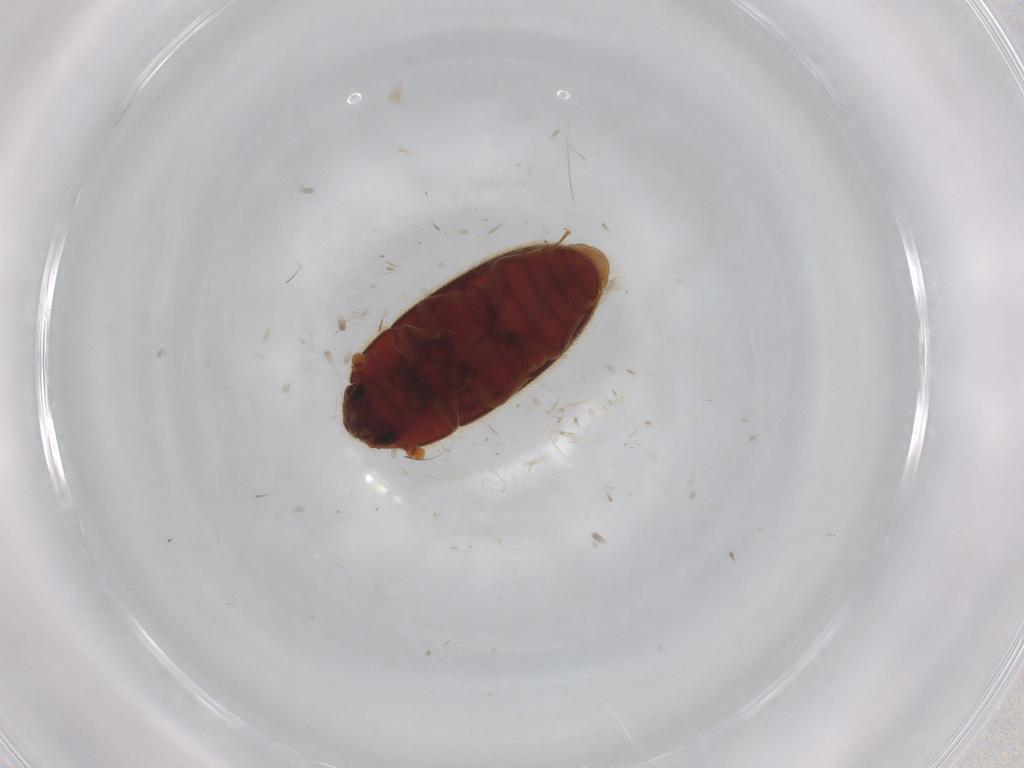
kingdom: Animalia
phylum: Arthropoda
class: Insecta
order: Coleoptera
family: Biphyllidae
